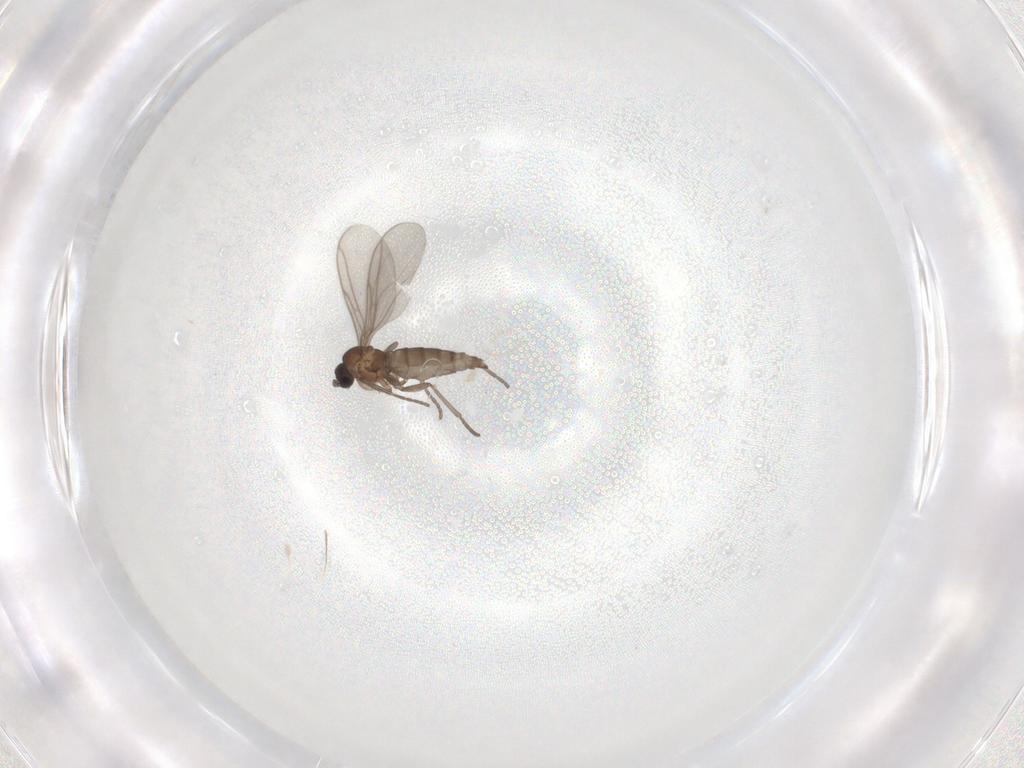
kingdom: Animalia
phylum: Arthropoda
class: Insecta
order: Diptera
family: Sciaridae
